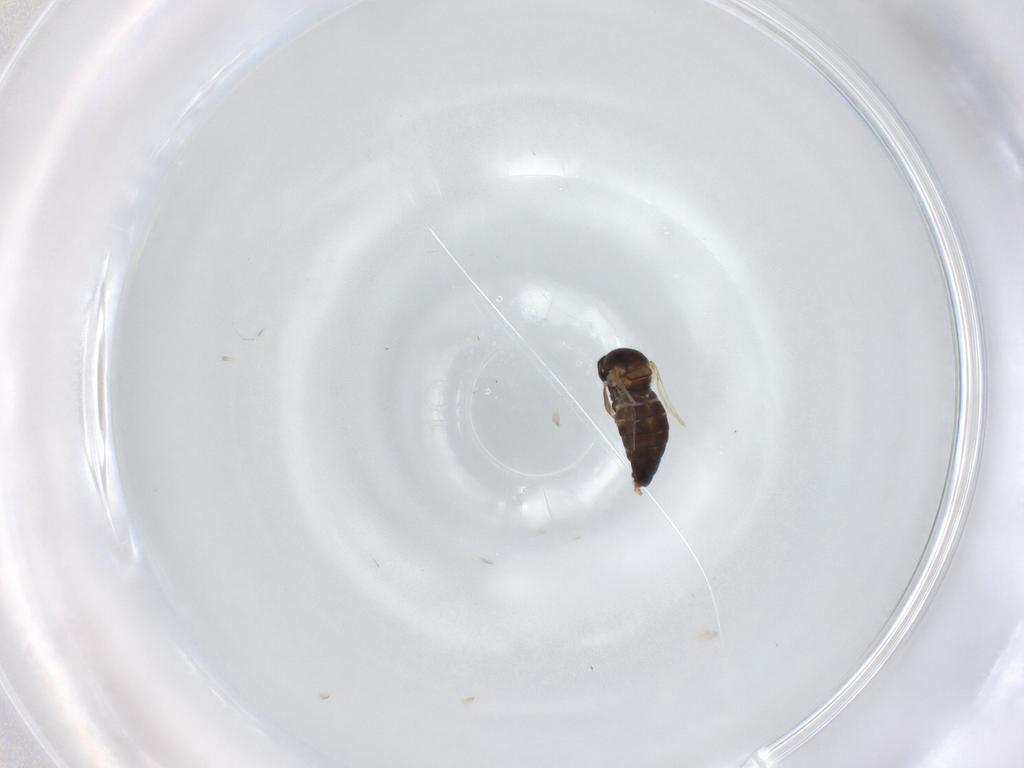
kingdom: Animalia
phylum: Arthropoda
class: Insecta
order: Diptera
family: Cecidomyiidae
